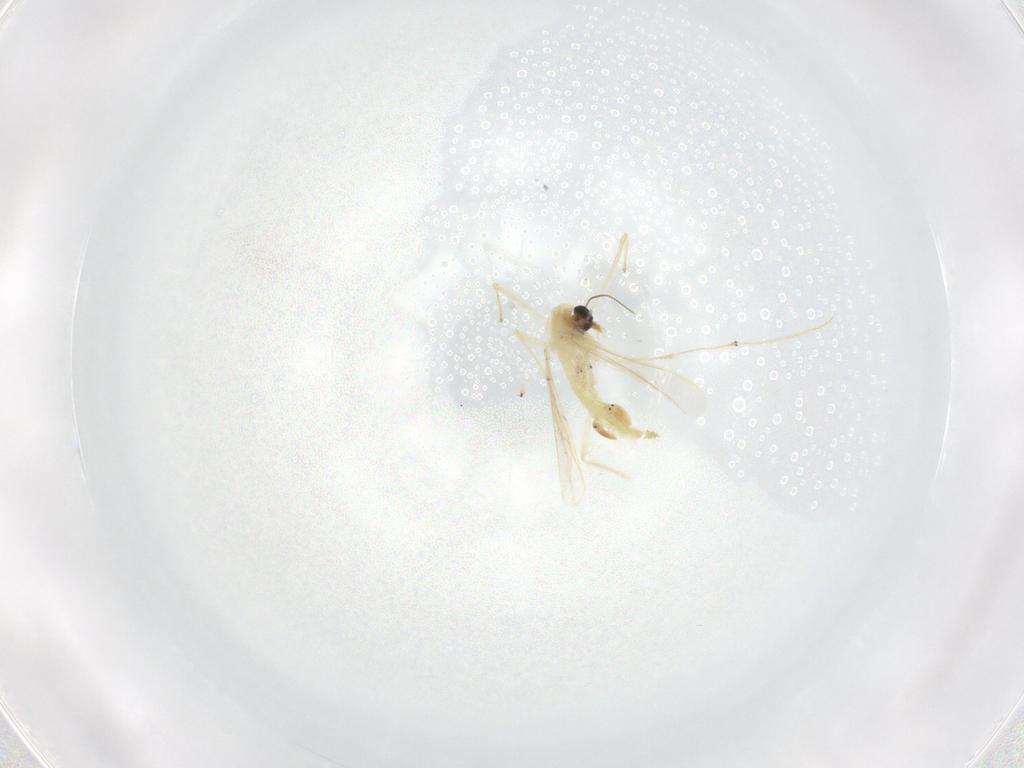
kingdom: Animalia
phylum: Arthropoda
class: Insecta
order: Diptera
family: Chironomidae
